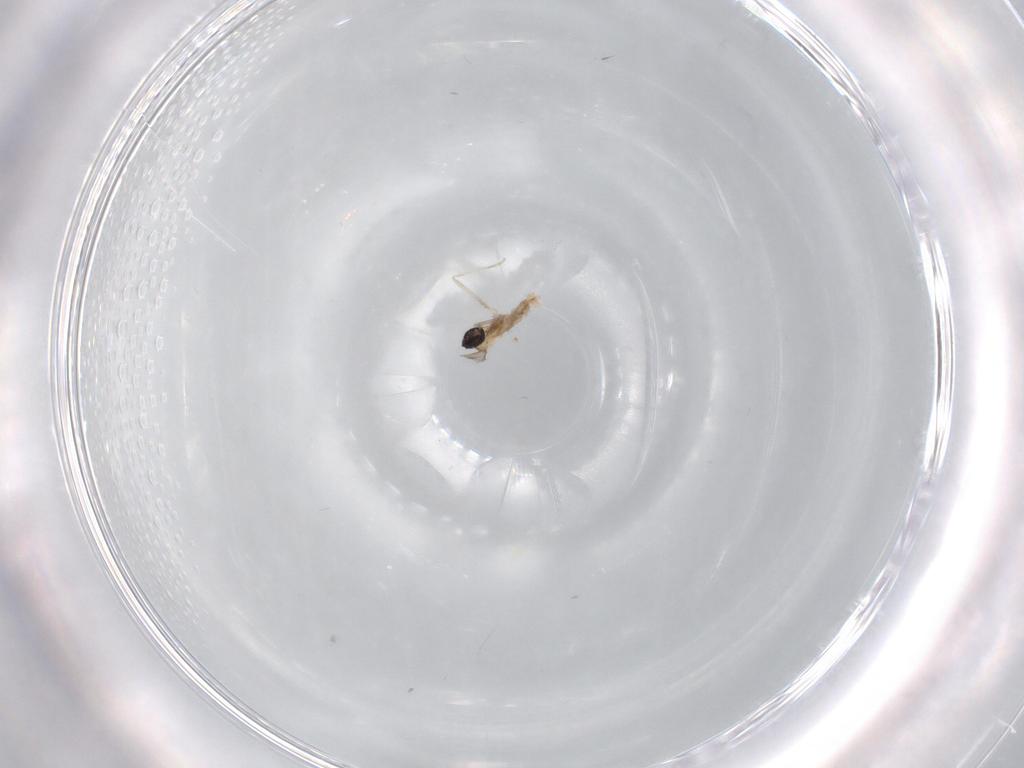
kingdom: Animalia
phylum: Arthropoda
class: Insecta
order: Diptera
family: Cecidomyiidae
